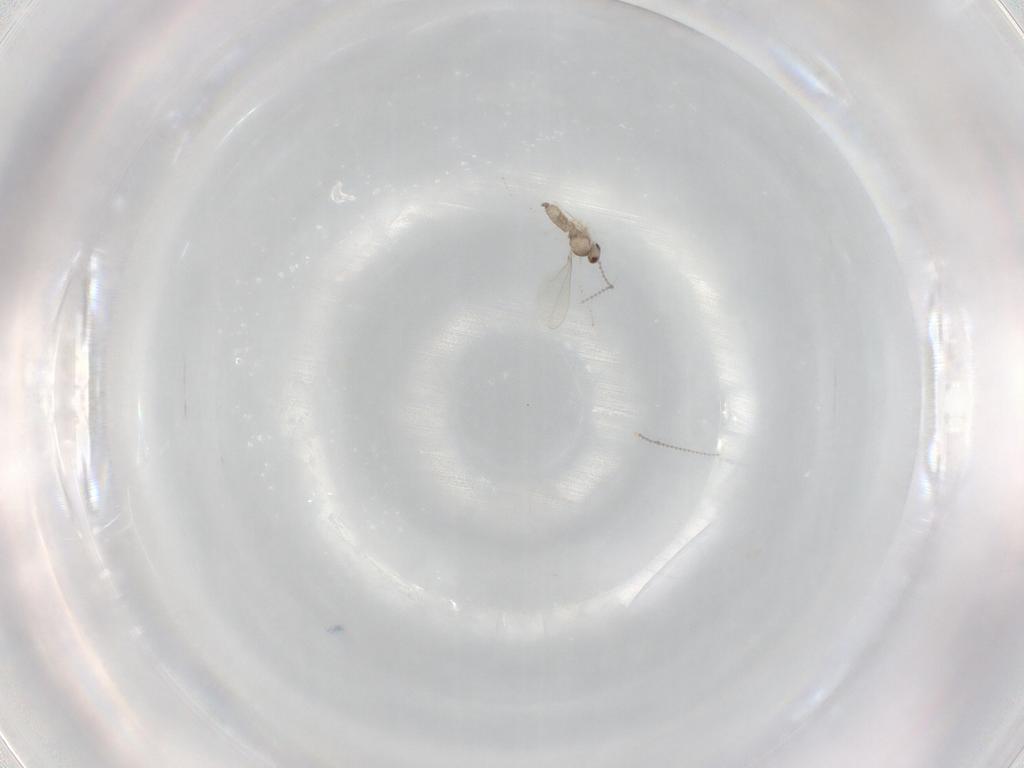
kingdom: Animalia
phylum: Arthropoda
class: Insecta
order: Diptera
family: Cecidomyiidae
